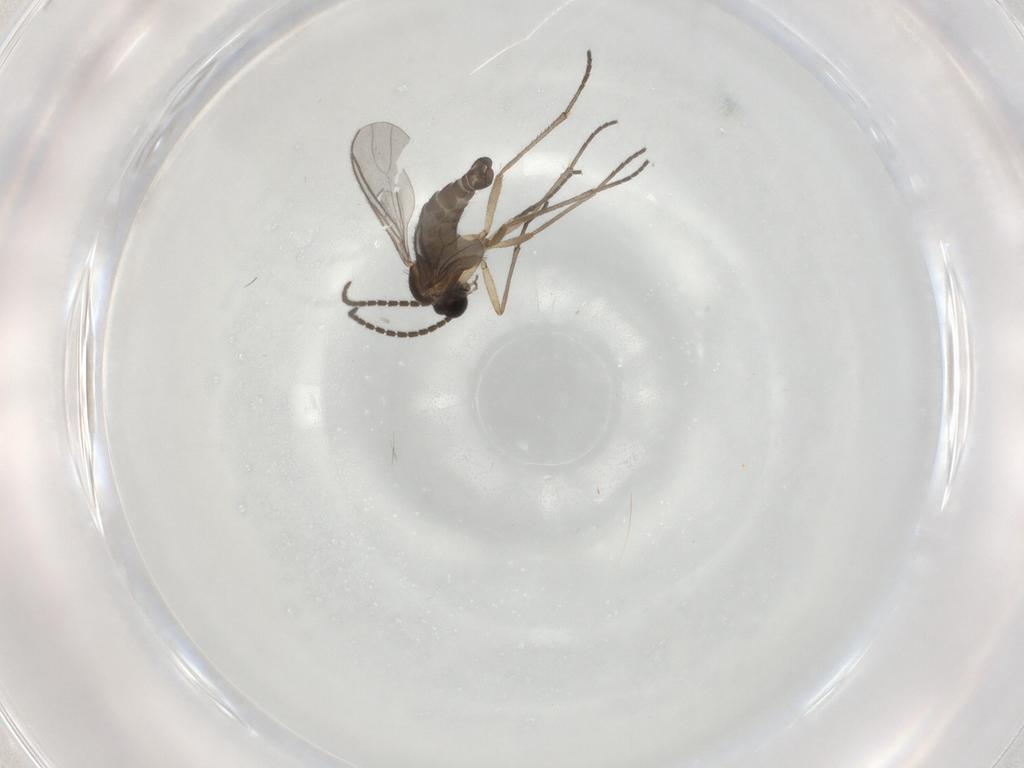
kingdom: Animalia
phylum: Arthropoda
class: Insecta
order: Diptera
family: Sciaridae
